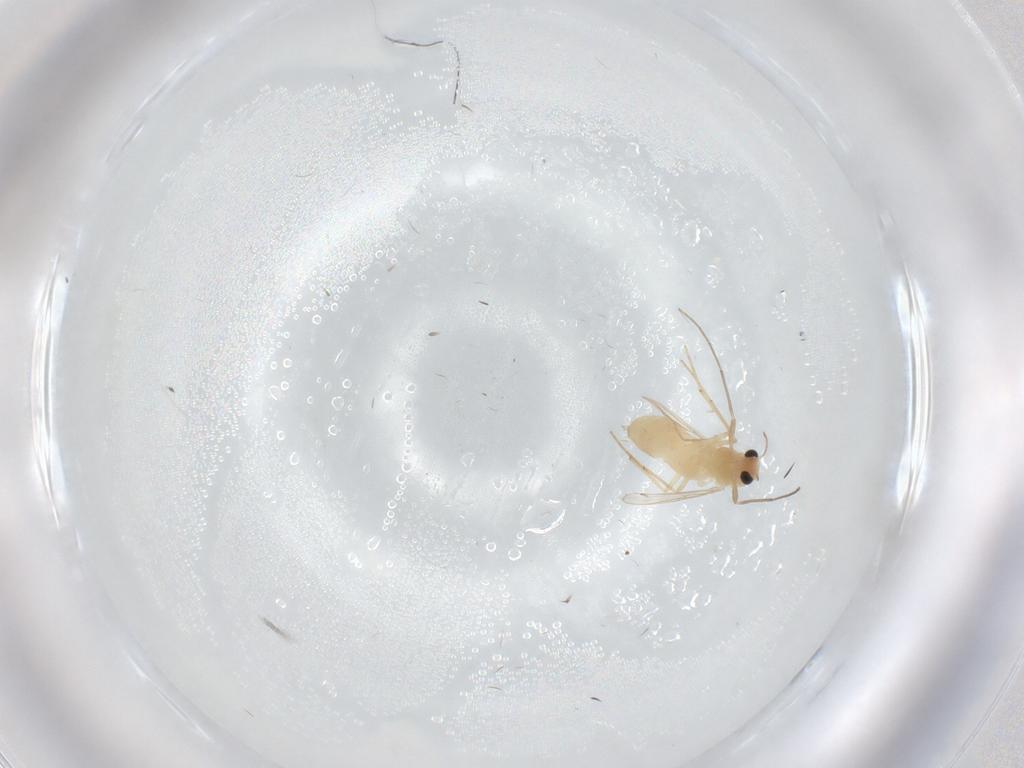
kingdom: Animalia
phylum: Arthropoda
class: Insecta
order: Diptera
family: Chironomidae
